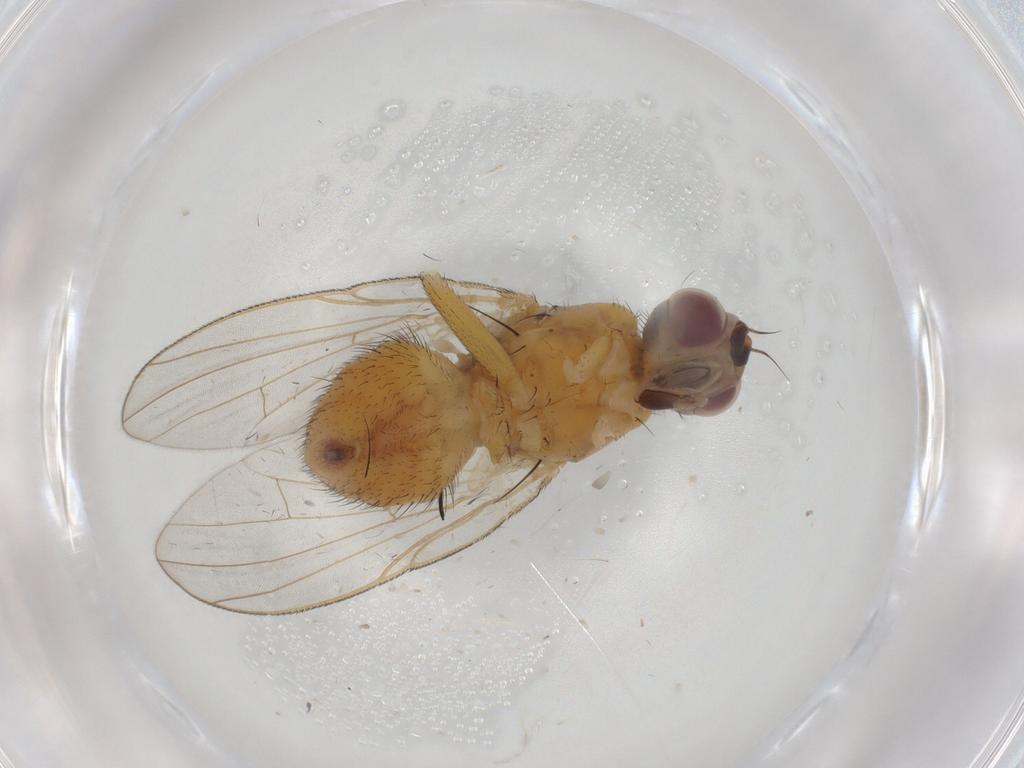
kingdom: Animalia
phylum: Arthropoda
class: Insecta
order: Diptera
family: Muscidae
